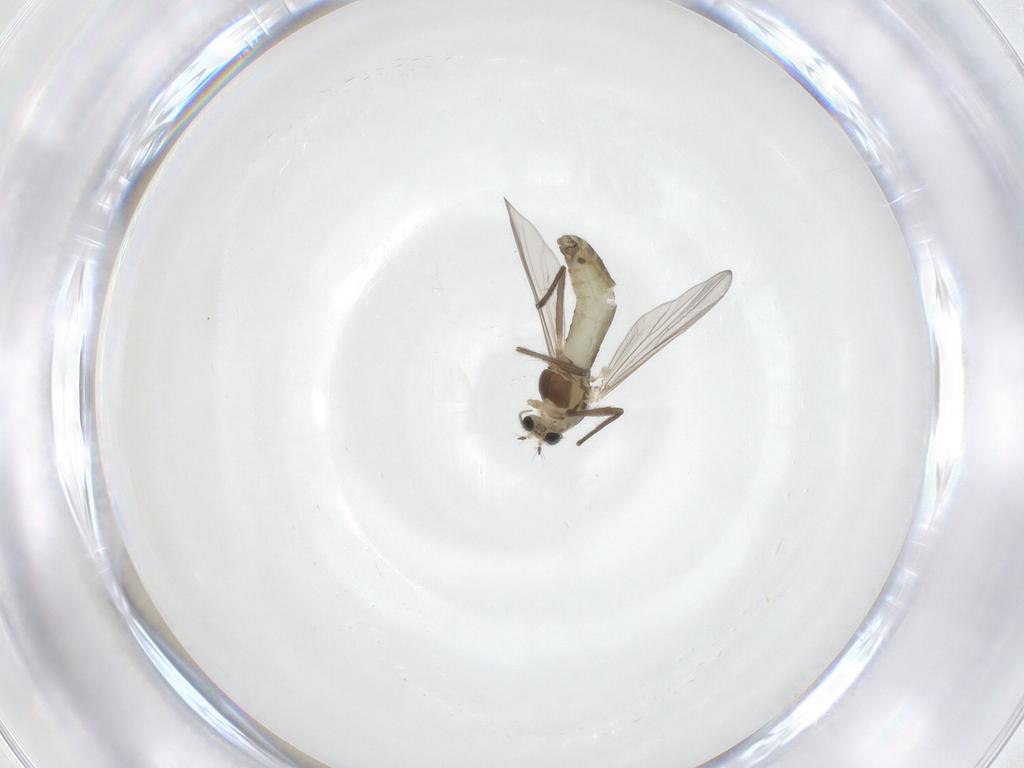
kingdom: Animalia
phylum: Arthropoda
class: Insecta
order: Diptera
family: Chironomidae
